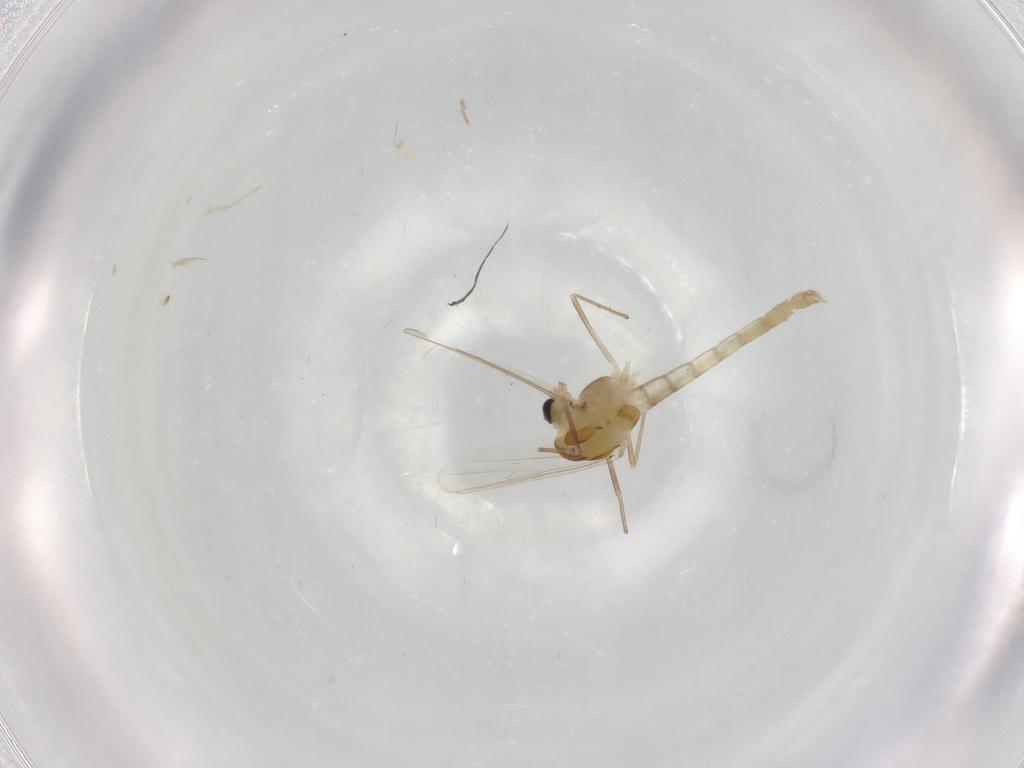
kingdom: Animalia
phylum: Arthropoda
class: Insecta
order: Diptera
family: Chironomidae
